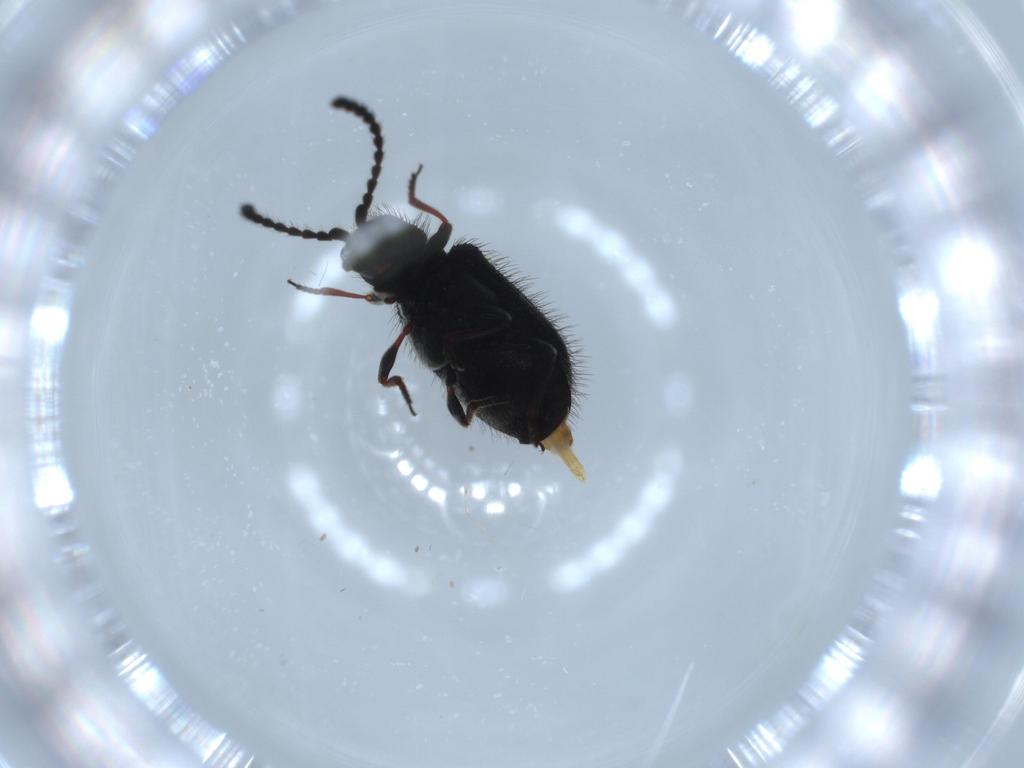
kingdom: Animalia
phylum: Arthropoda
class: Insecta
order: Coleoptera
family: Ptinidae
